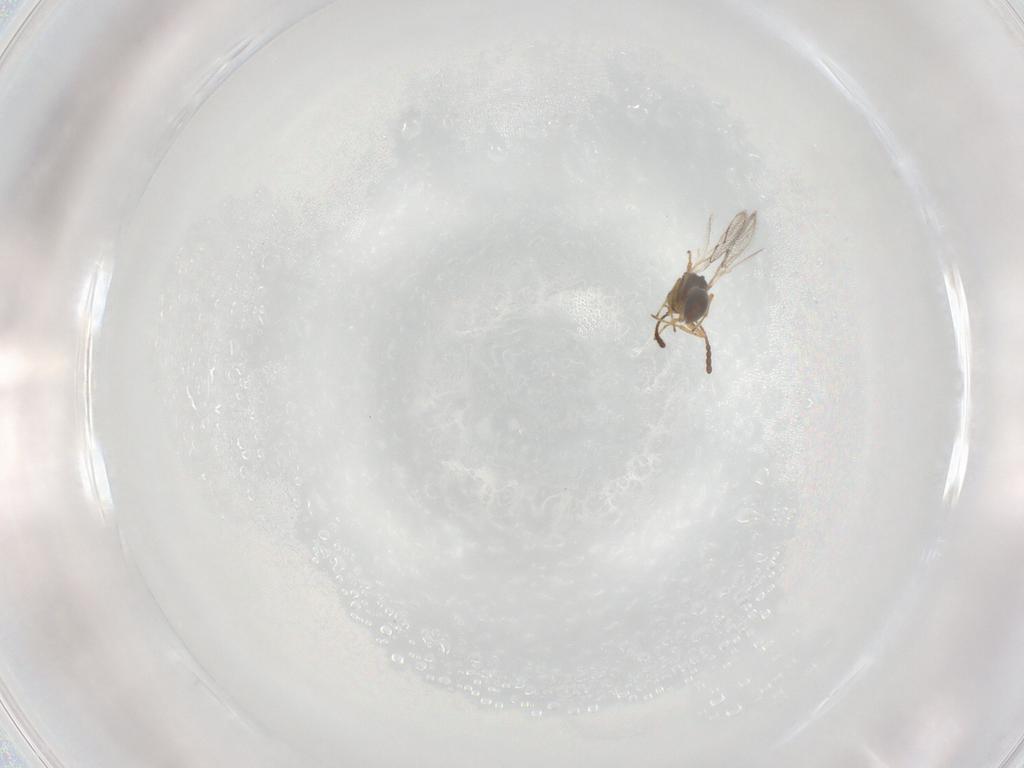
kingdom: Animalia
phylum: Arthropoda
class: Insecta
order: Hymenoptera
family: Figitidae
